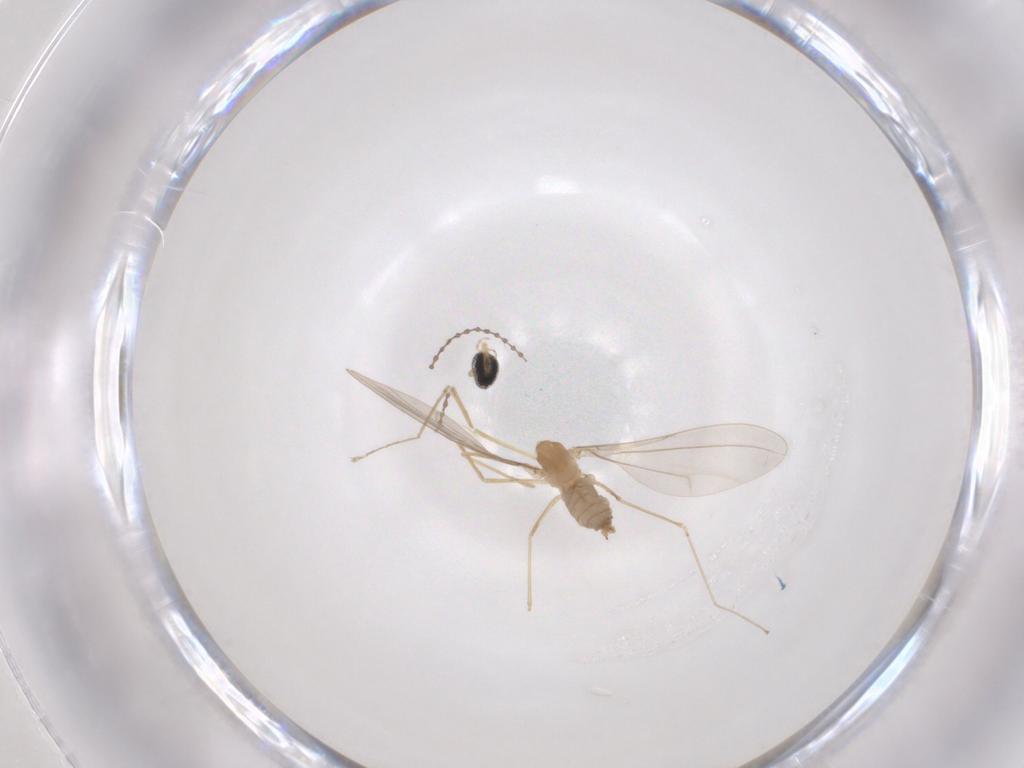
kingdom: Animalia
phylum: Arthropoda
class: Insecta
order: Diptera
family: Cecidomyiidae
